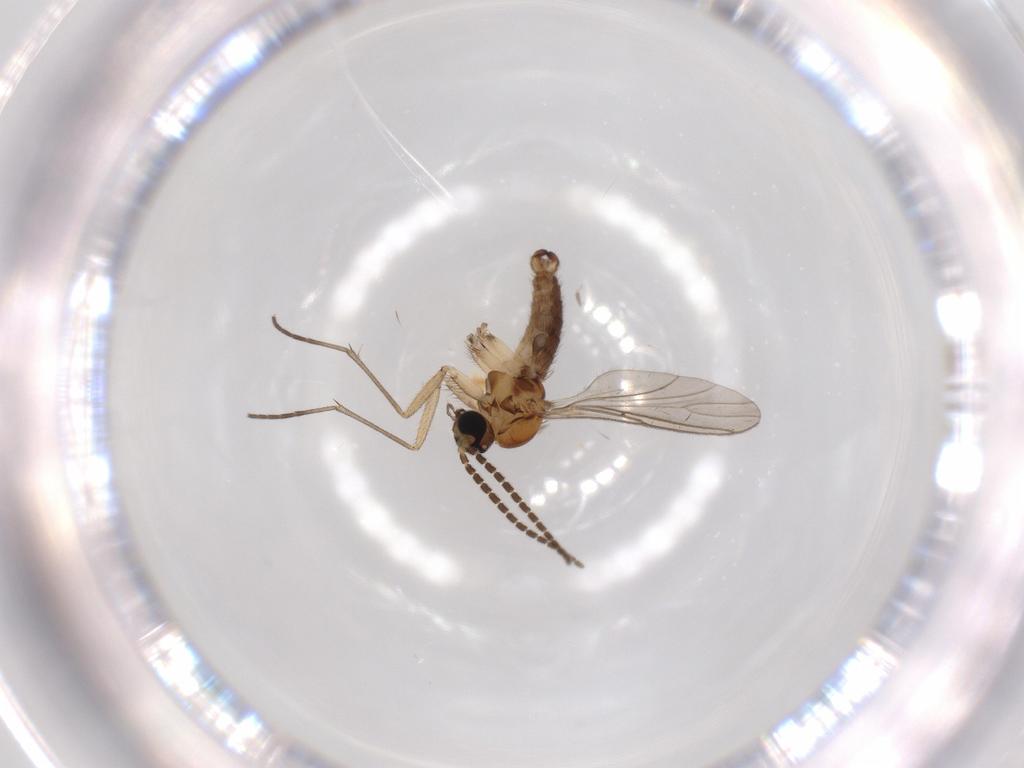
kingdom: Animalia
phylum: Arthropoda
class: Insecta
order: Diptera
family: Sciaridae
